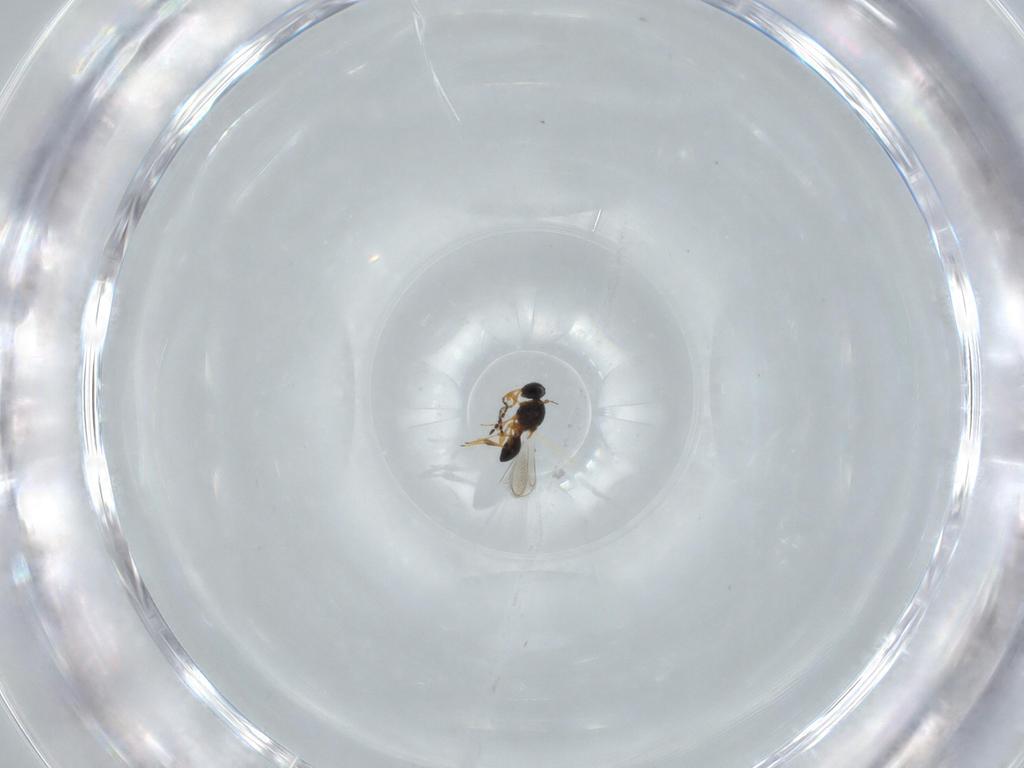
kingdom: Animalia
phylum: Arthropoda
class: Insecta
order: Hymenoptera
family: Platygastridae
